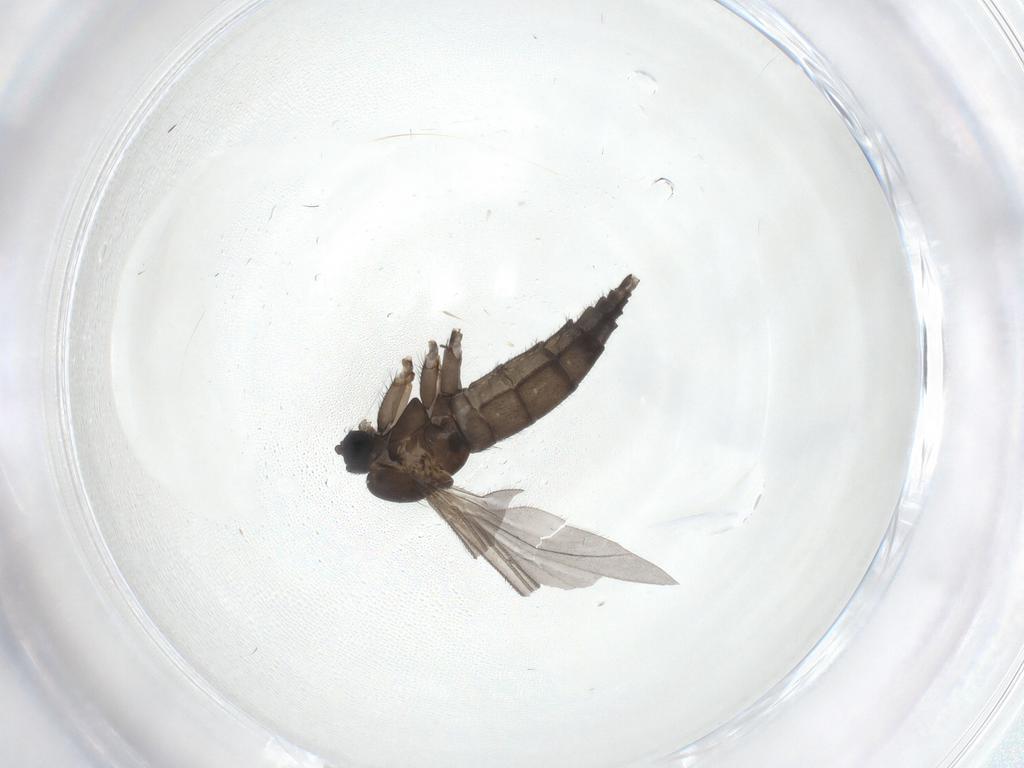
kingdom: Animalia
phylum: Arthropoda
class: Insecta
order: Diptera
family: Sciaridae
